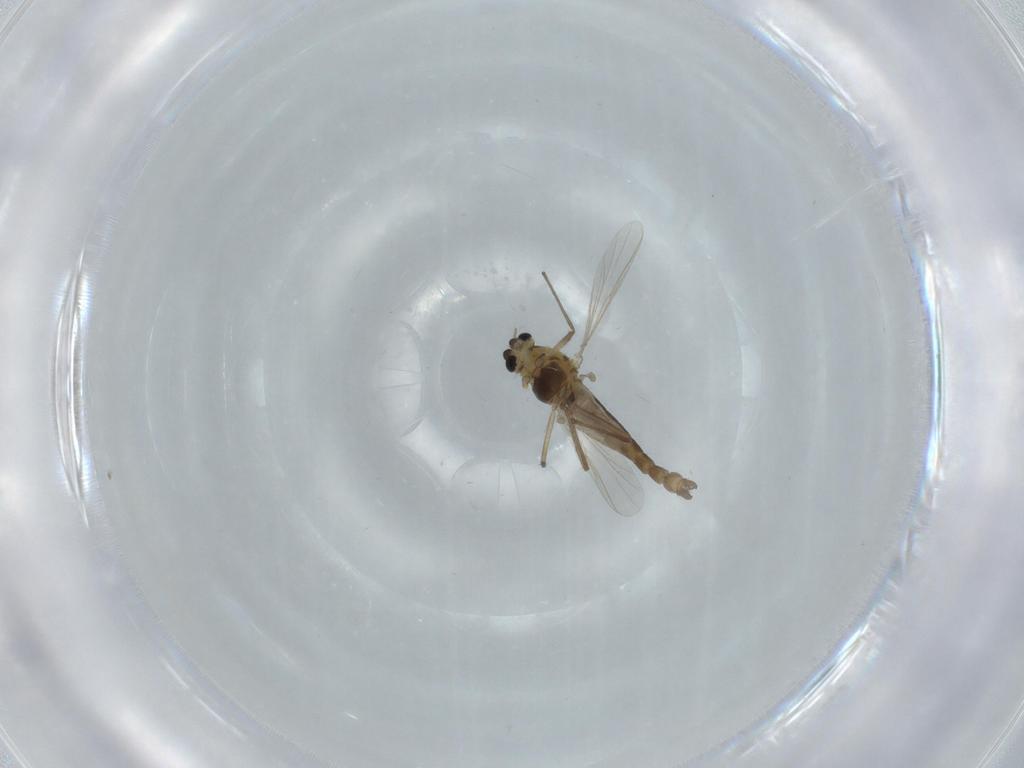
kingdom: Animalia
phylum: Arthropoda
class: Insecta
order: Diptera
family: Chironomidae
